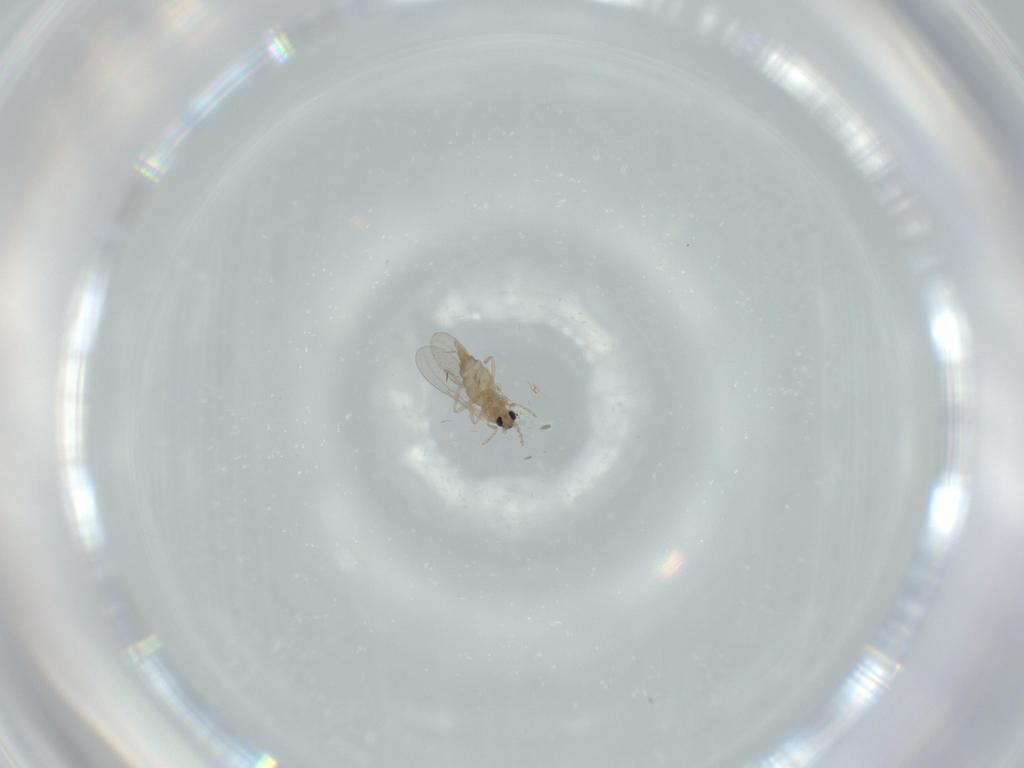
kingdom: Animalia
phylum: Arthropoda
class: Insecta
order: Diptera
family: Cecidomyiidae
